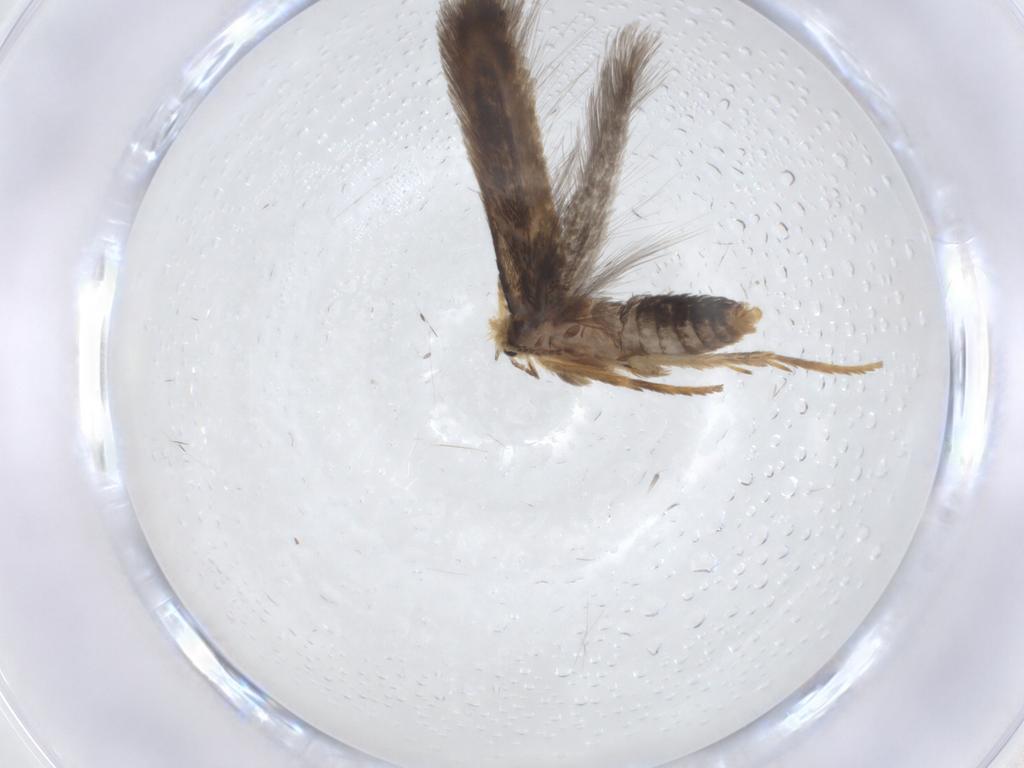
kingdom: Animalia
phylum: Arthropoda
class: Insecta
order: Lepidoptera
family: Nepticulidae
